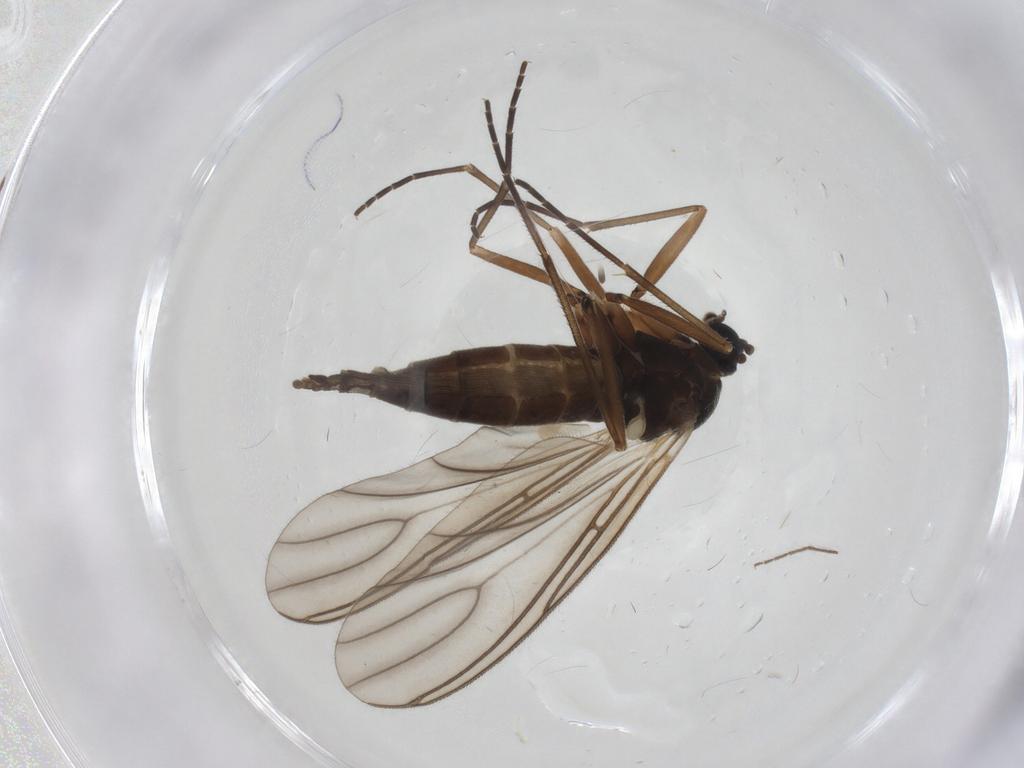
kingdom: Animalia
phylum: Arthropoda
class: Insecta
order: Diptera
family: Sciaridae
